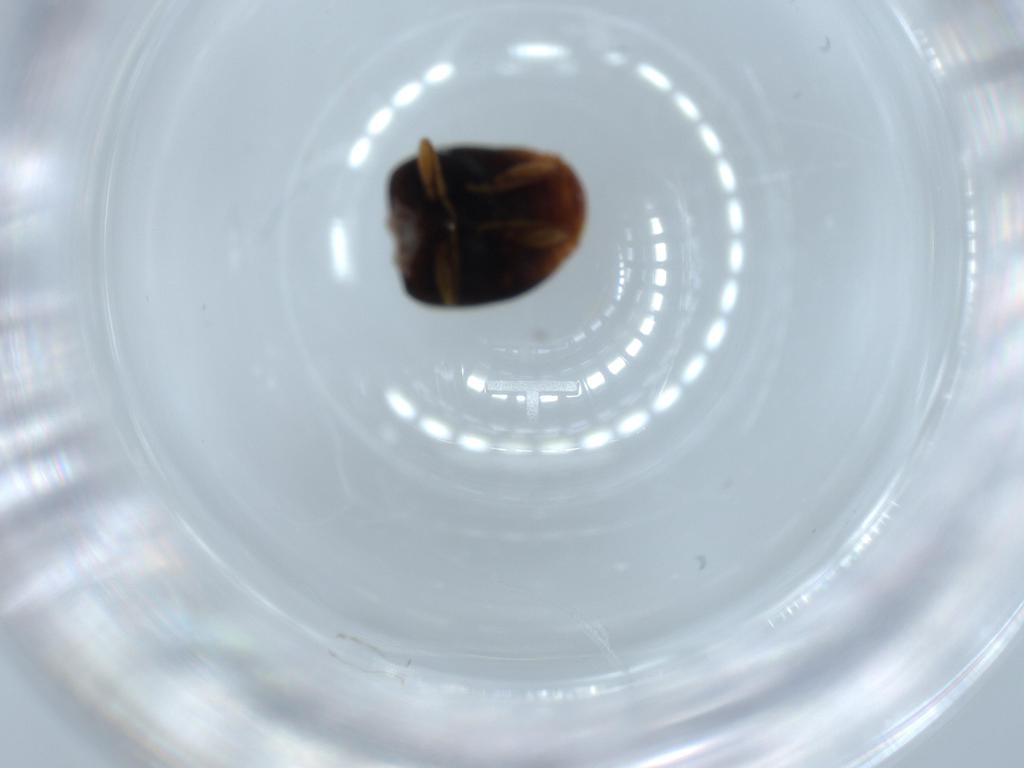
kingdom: Animalia
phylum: Arthropoda
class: Insecta
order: Coleoptera
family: Coccinellidae
